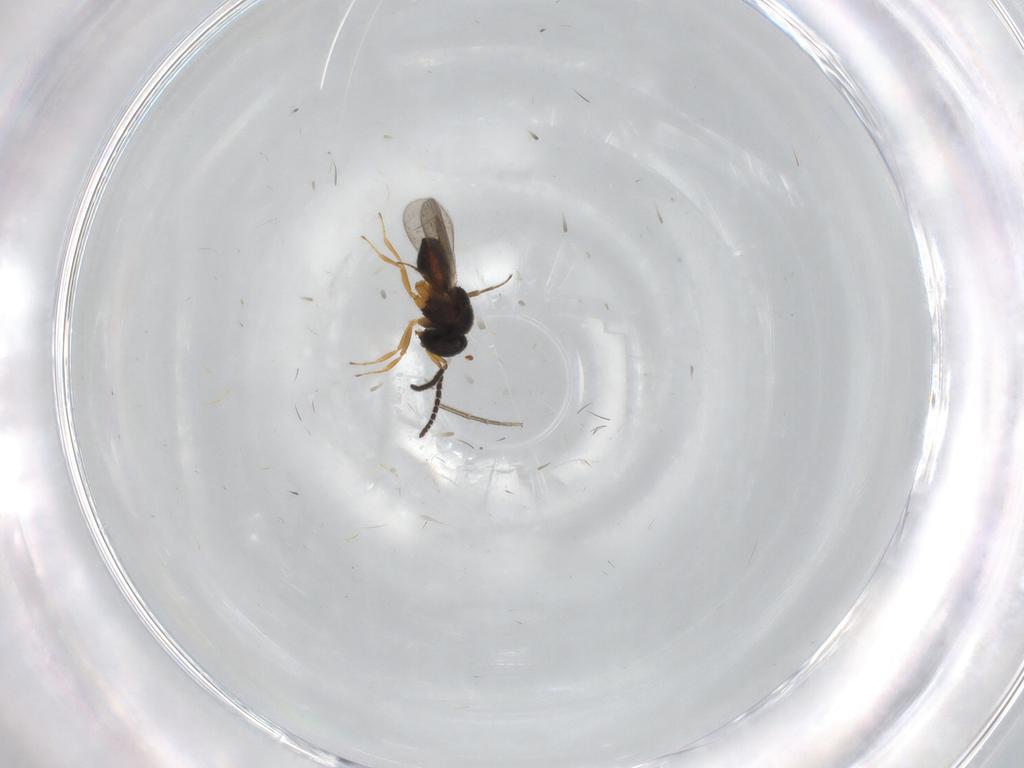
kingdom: Animalia
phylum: Arthropoda
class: Insecta
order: Hymenoptera
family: Scelionidae
